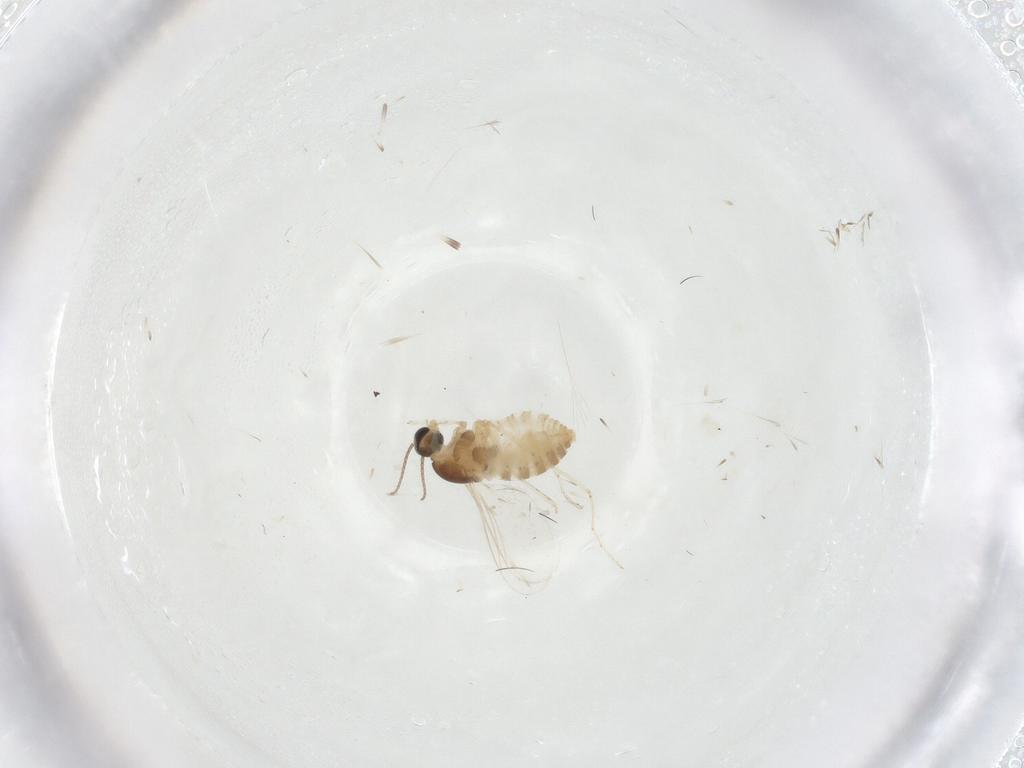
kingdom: Animalia
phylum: Arthropoda
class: Insecta
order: Diptera
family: Cecidomyiidae
